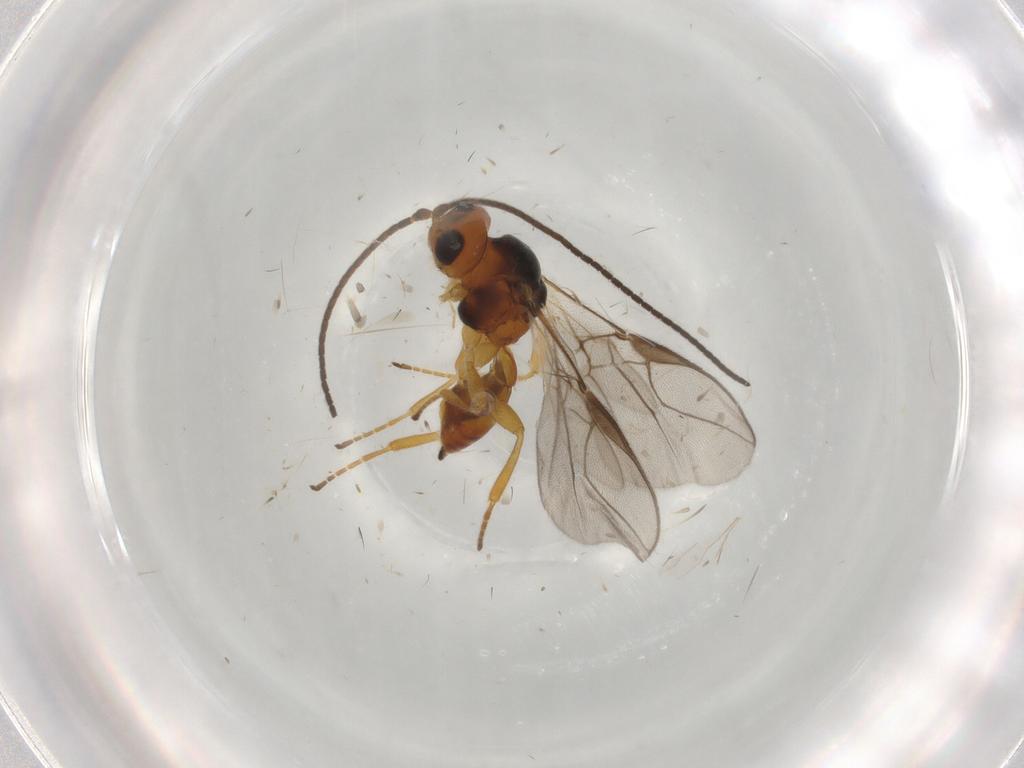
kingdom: Animalia
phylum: Arthropoda
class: Insecta
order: Hymenoptera
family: Braconidae
